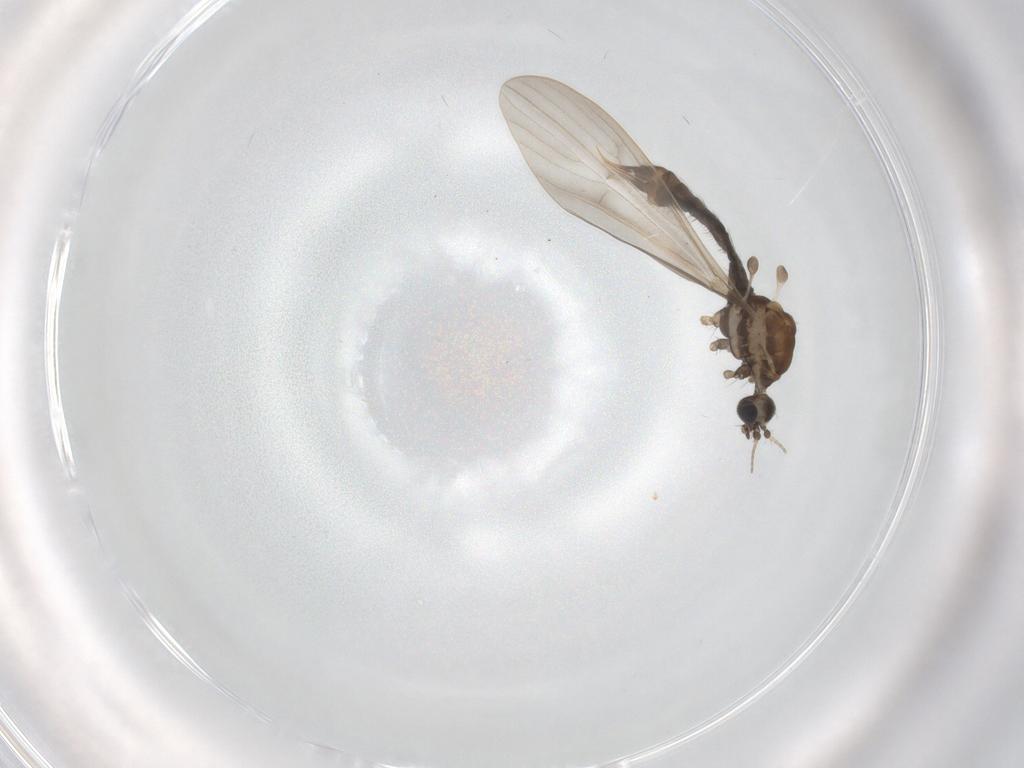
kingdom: Animalia
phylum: Arthropoda
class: Insecta
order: Diptera
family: Limoniidae
